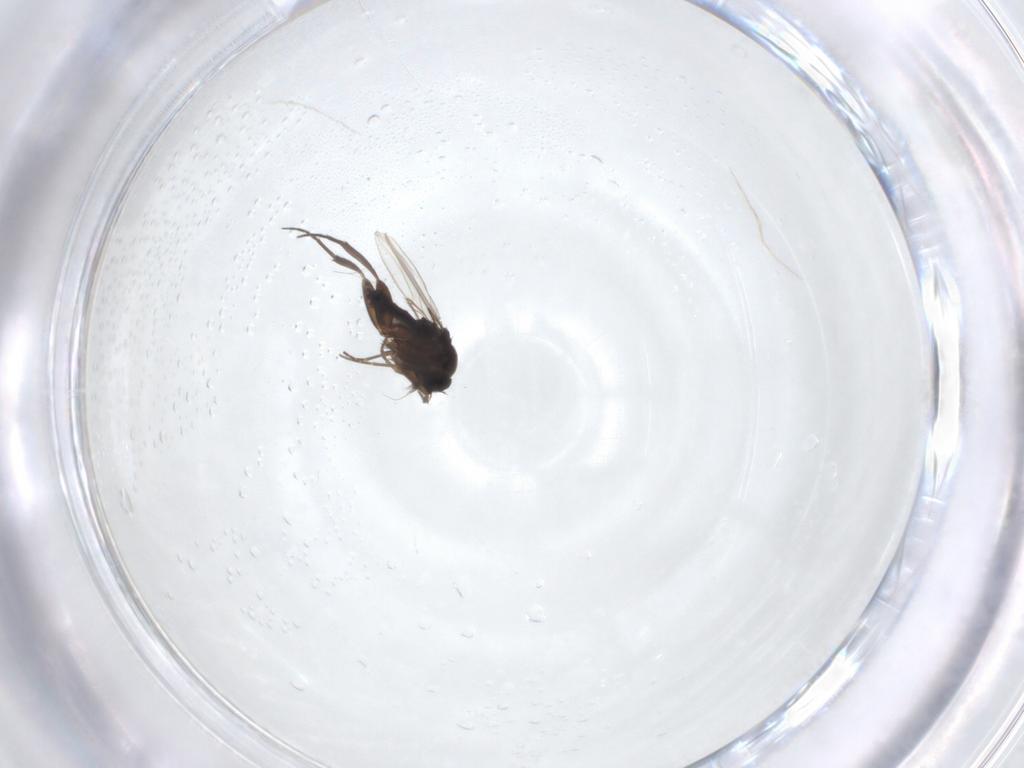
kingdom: Animalia
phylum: Arthropoda
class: Insecta
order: Diptera
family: Phoridae
